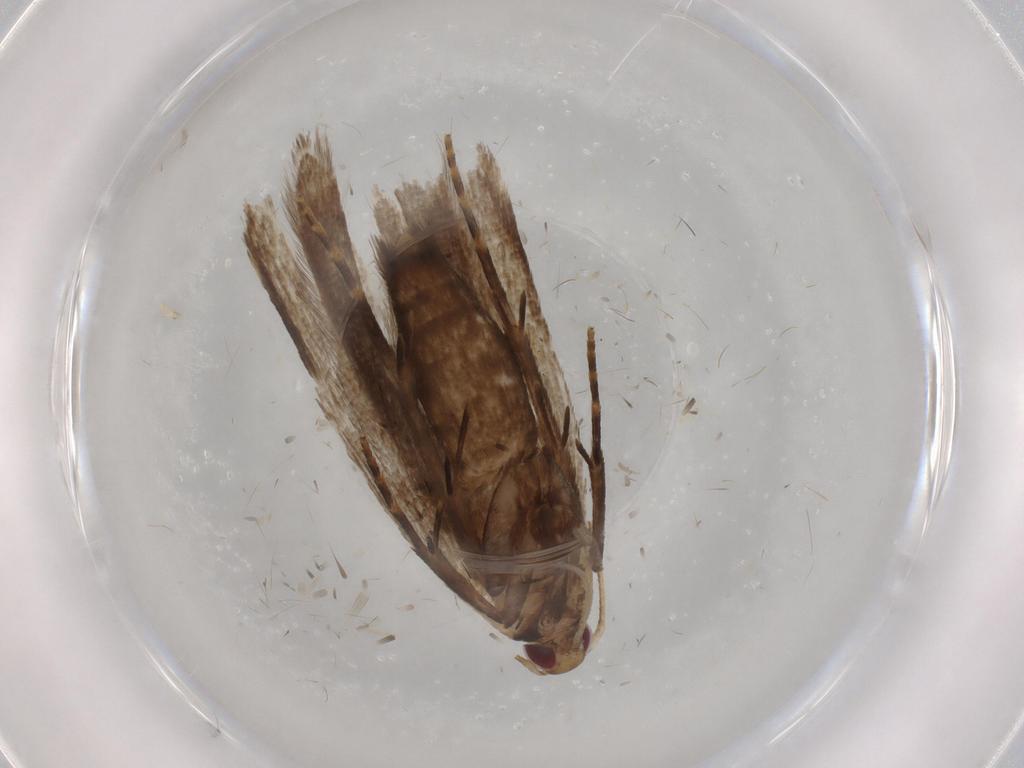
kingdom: Animalia
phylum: Arthropoda
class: Insecta
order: Lepidoptera
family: Gelechiidae
